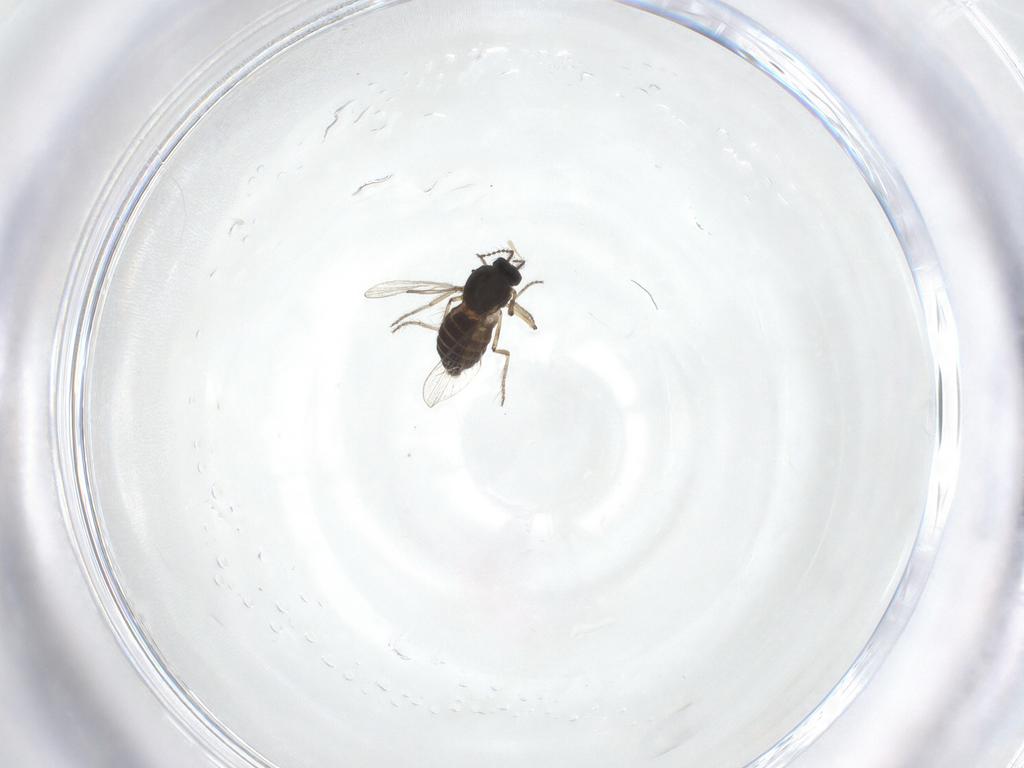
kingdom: Animalia
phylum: Arthropoda
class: Insecta
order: Diptera
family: Ceratopogonidae
